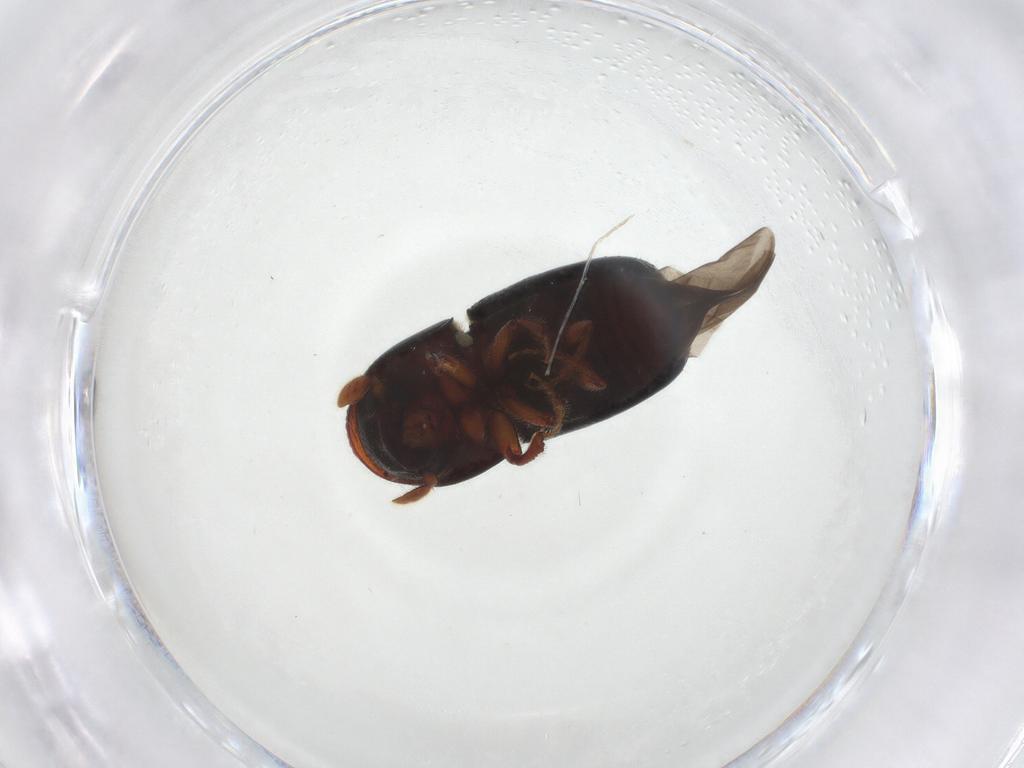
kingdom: Animalia
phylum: Arthropoda
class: Insecta
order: Coleoptera
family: Curculionidae
